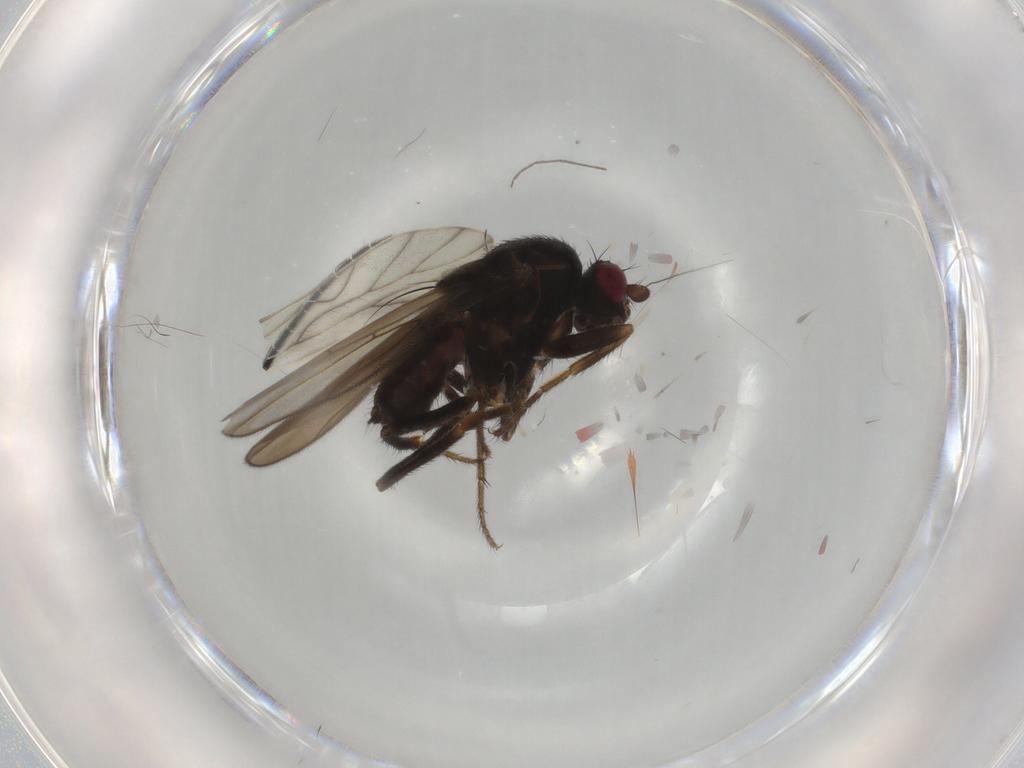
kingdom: Animalia
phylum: Arthropoda
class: Insecta
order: Diptera
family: Sphaeroceridae
